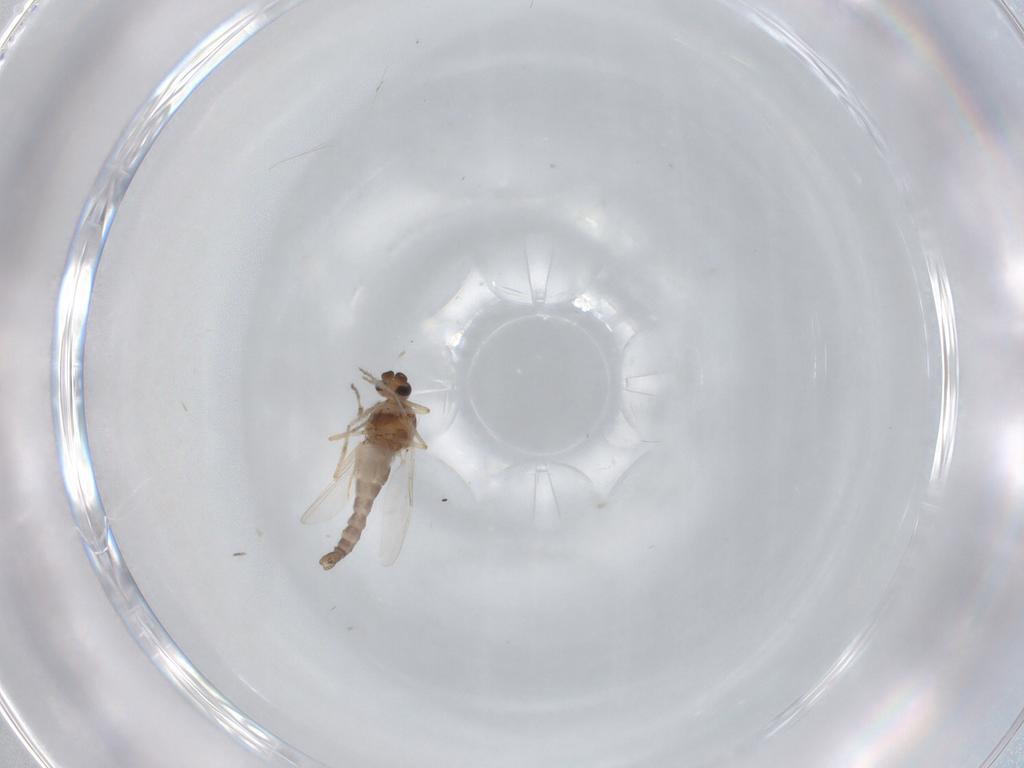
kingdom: Animalia
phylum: Arthropoda
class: Insecta
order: Diptera
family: Ceratopogonidae
